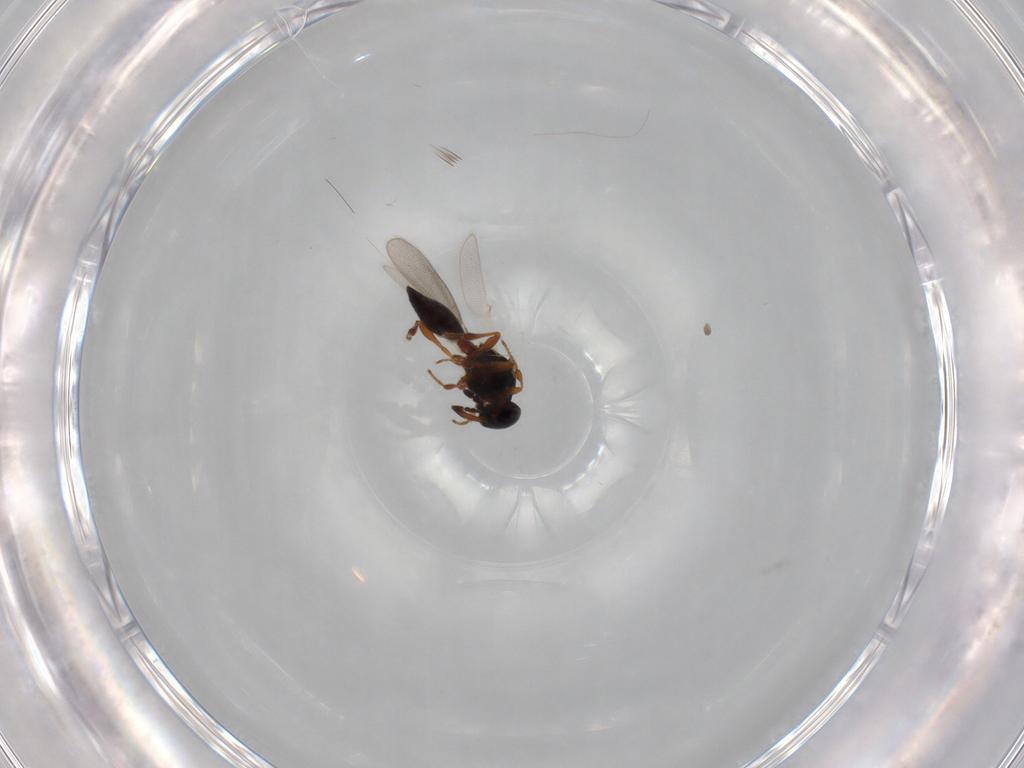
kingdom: Animalia
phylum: Arthropoda
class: Insecta
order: Hymenoptera
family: Platygastridae
